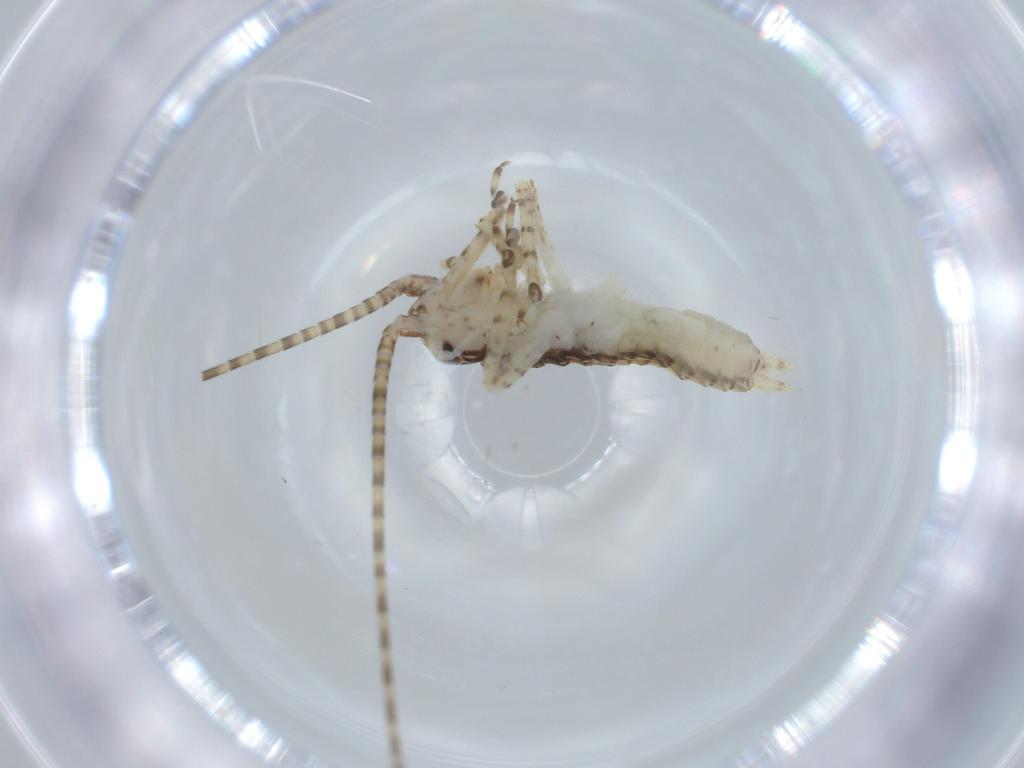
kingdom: Animalia
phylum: Arthropoda
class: Insecta
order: Orthoptera
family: Gryllidae
